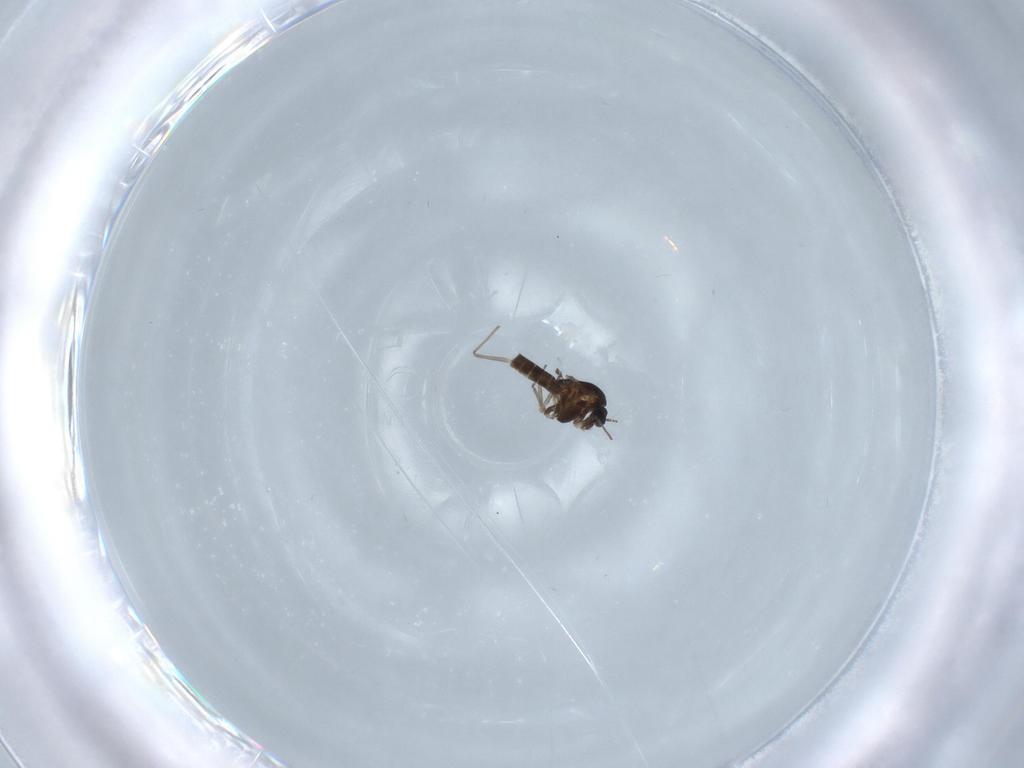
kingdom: Animalia
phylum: Arthropoda
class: Insecta
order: Diptera
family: Chironomidae
